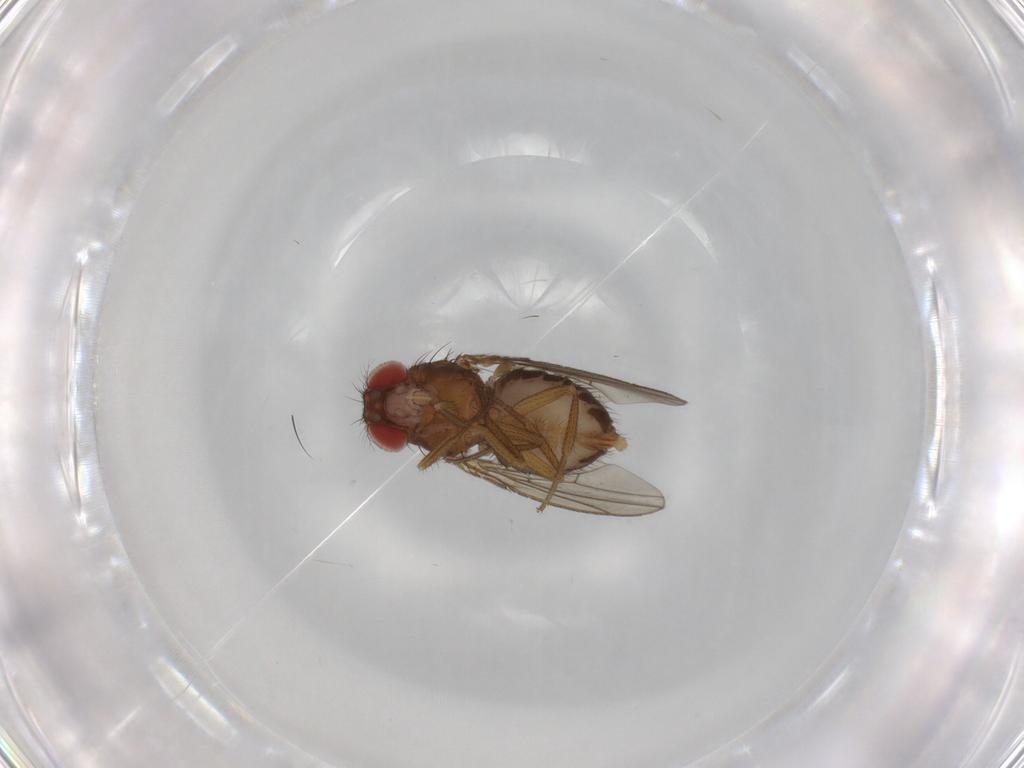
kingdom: Animalia
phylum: Arthropoda
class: Insecta
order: Diptera
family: Drosophilidae
